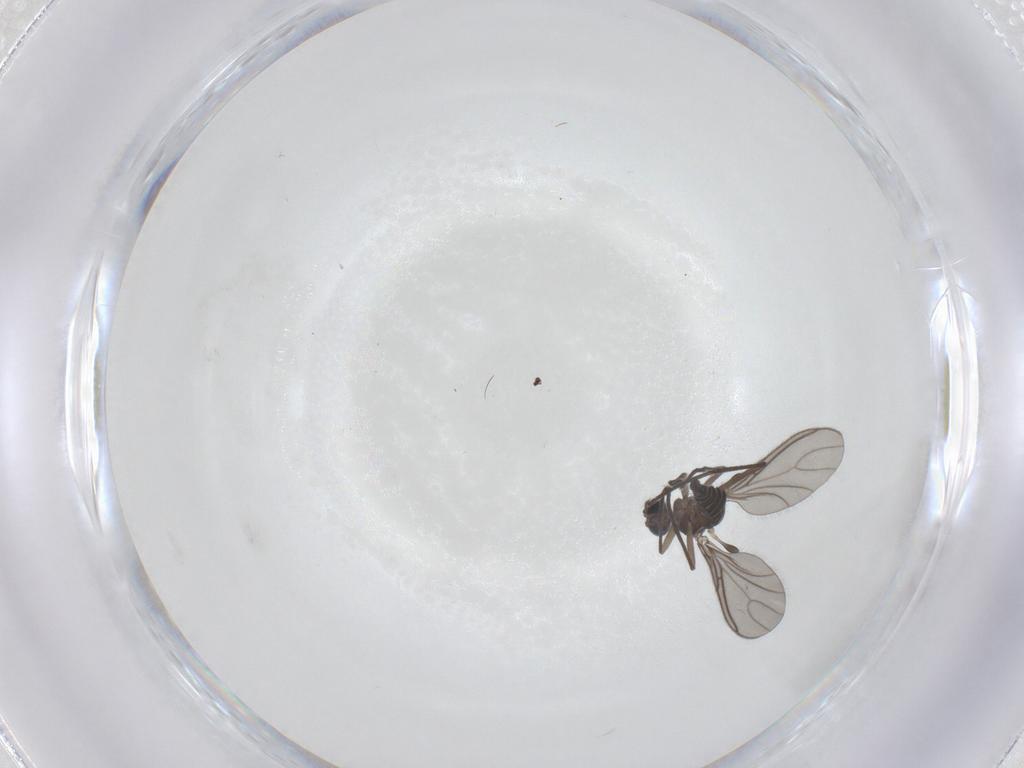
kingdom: Animalia
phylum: Arthropoda
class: Insecta
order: Diptera
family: Sciaridae
